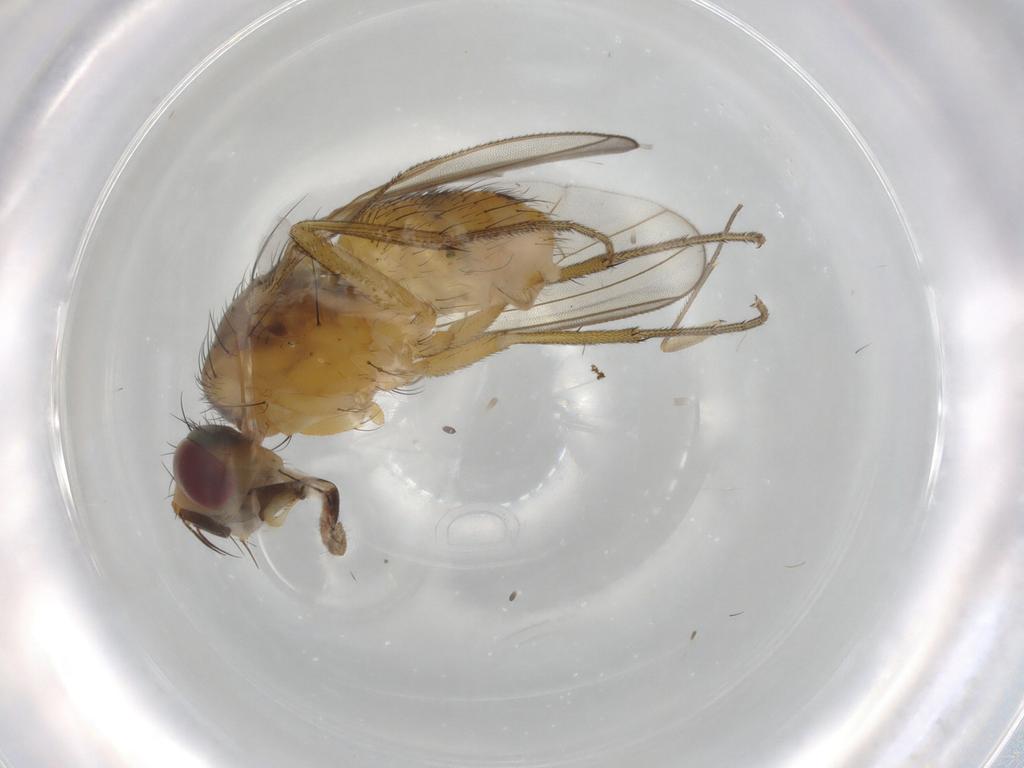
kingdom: Animalia
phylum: Arthropoda
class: Insecta
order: Diptera
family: Muscidae
